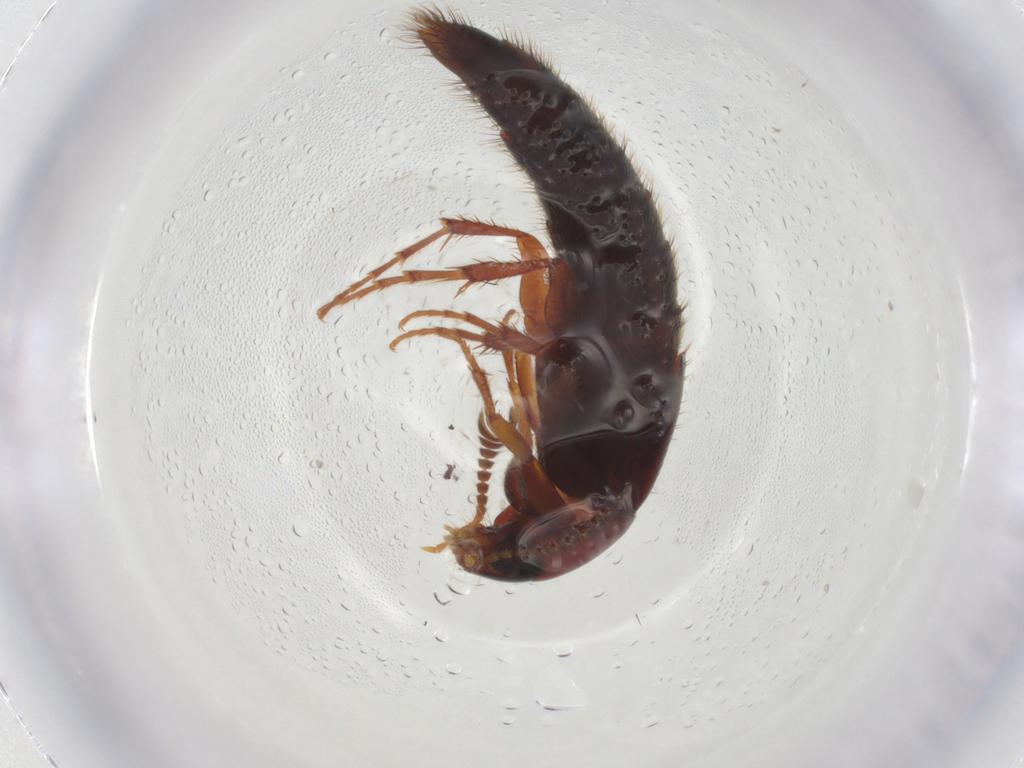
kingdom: Animalia
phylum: Arthropoda
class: Insecta
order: Coleoptera
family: Staphylinidae
